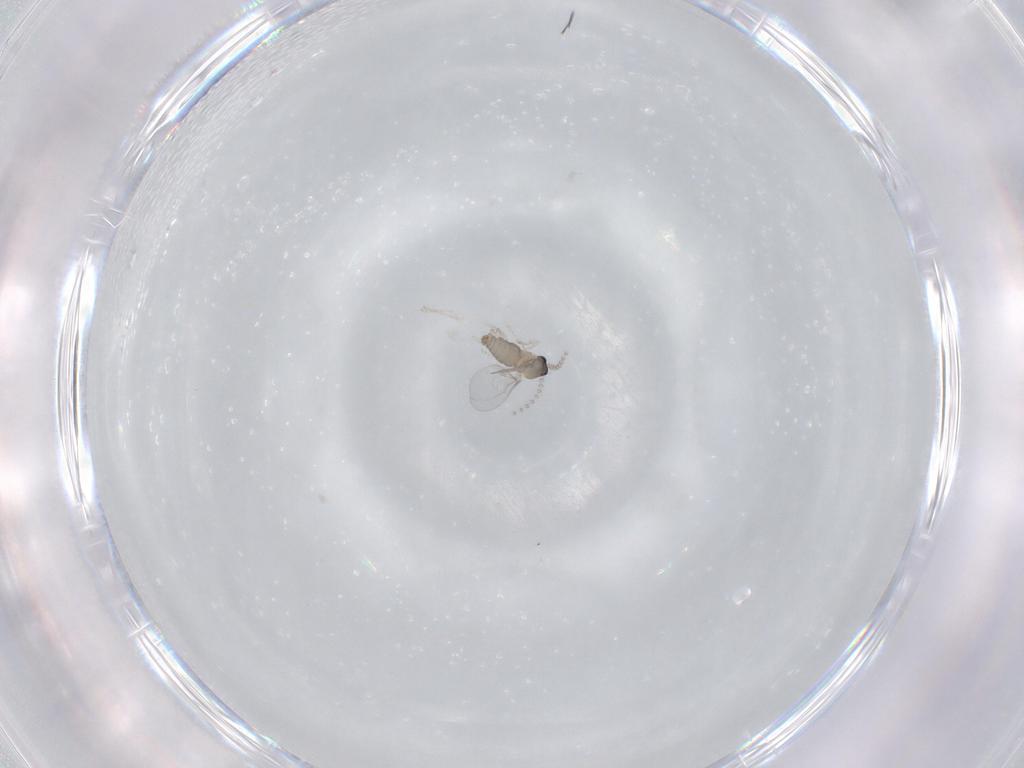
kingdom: Animalia
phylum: Arthropoda
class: Insecta
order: Diptera
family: Cecidomyiidae
